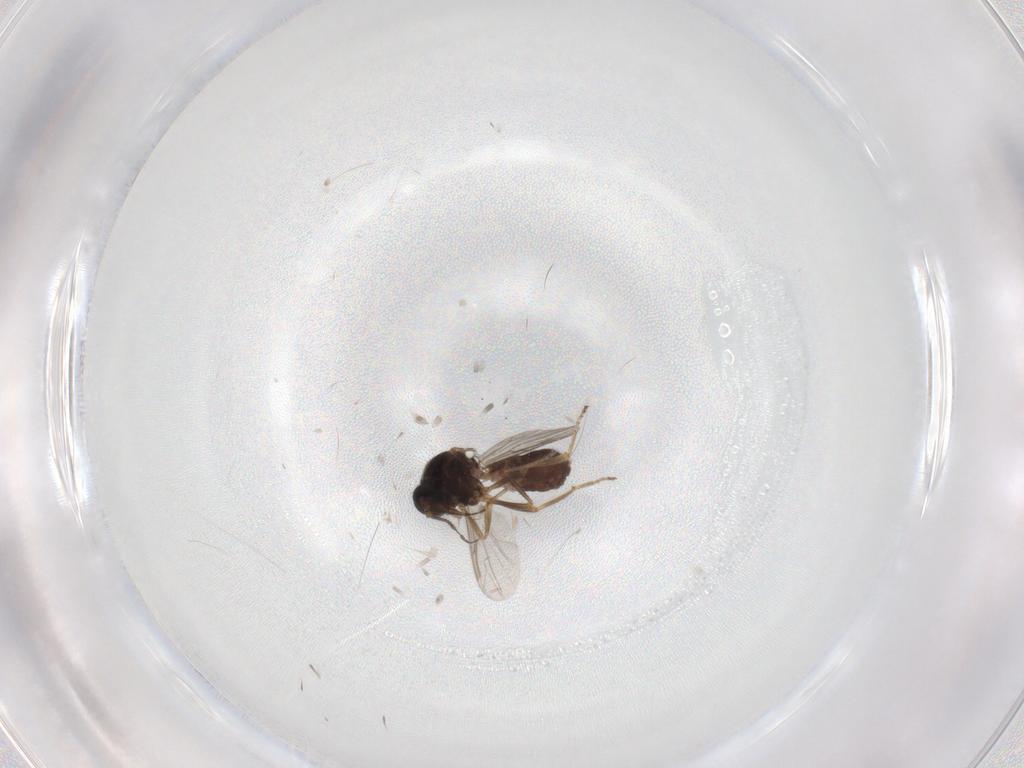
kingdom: Animalia
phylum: Arthropoda
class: Insecta
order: Diptera
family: Ceratopogonidae
